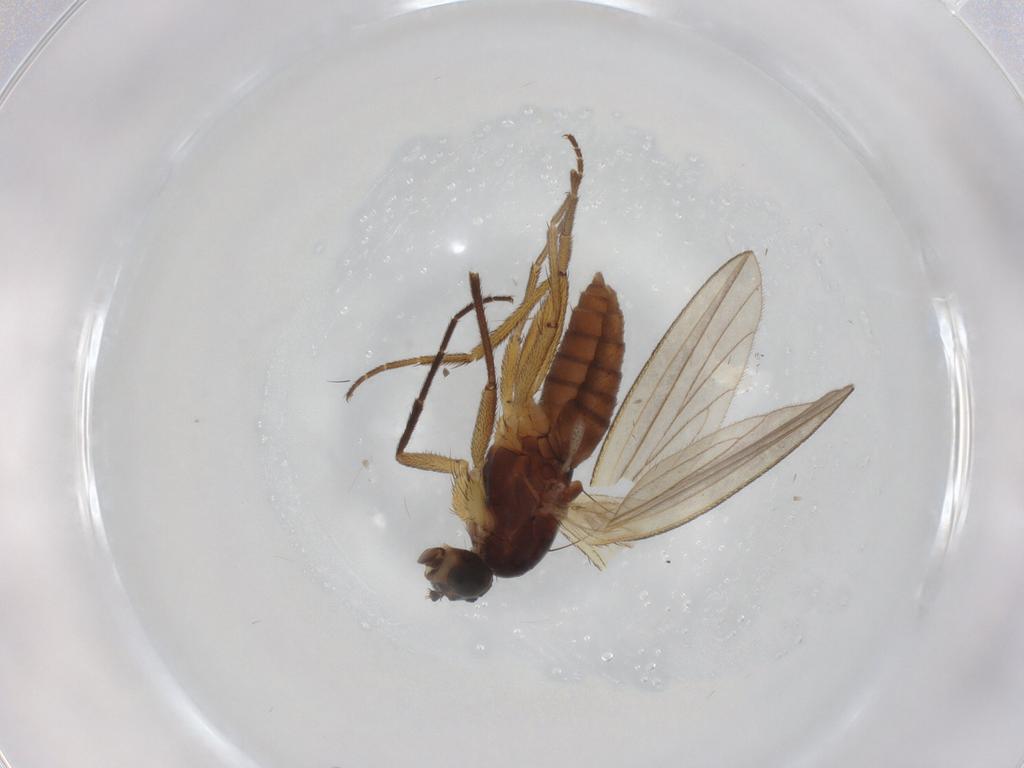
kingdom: Animalia
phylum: Arthropoda
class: Insecta
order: Diptera
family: Lonchopteridae
